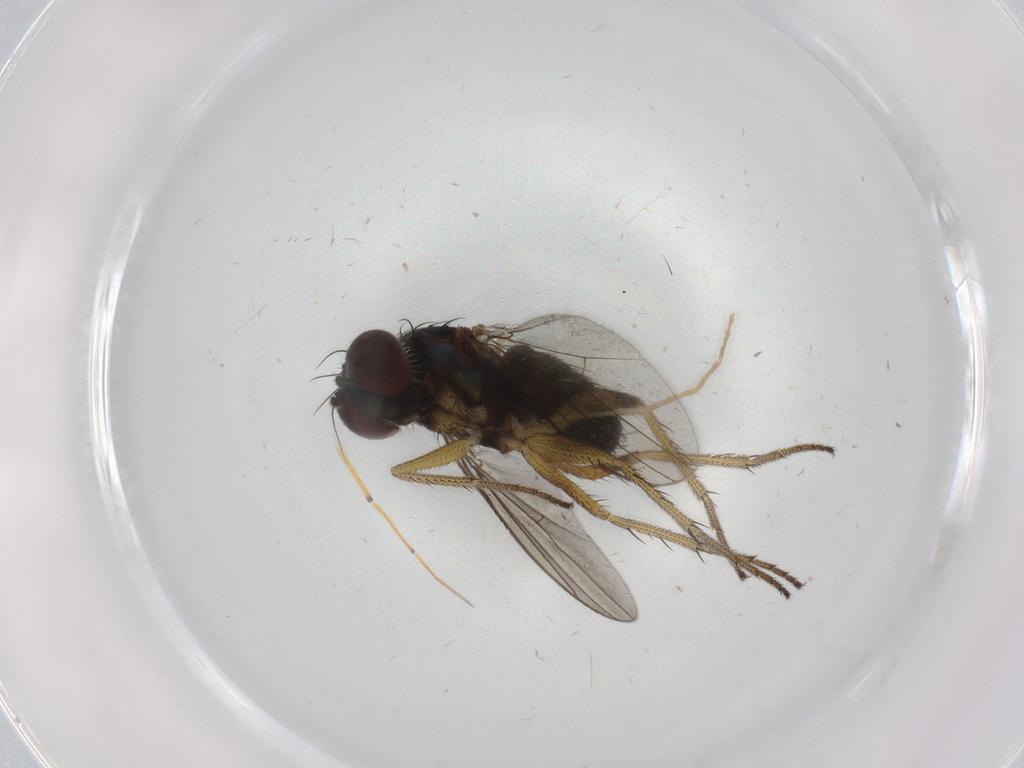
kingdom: Animalia
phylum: Arthropoda
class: Insecta
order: Diptera
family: Dolichopodidae
